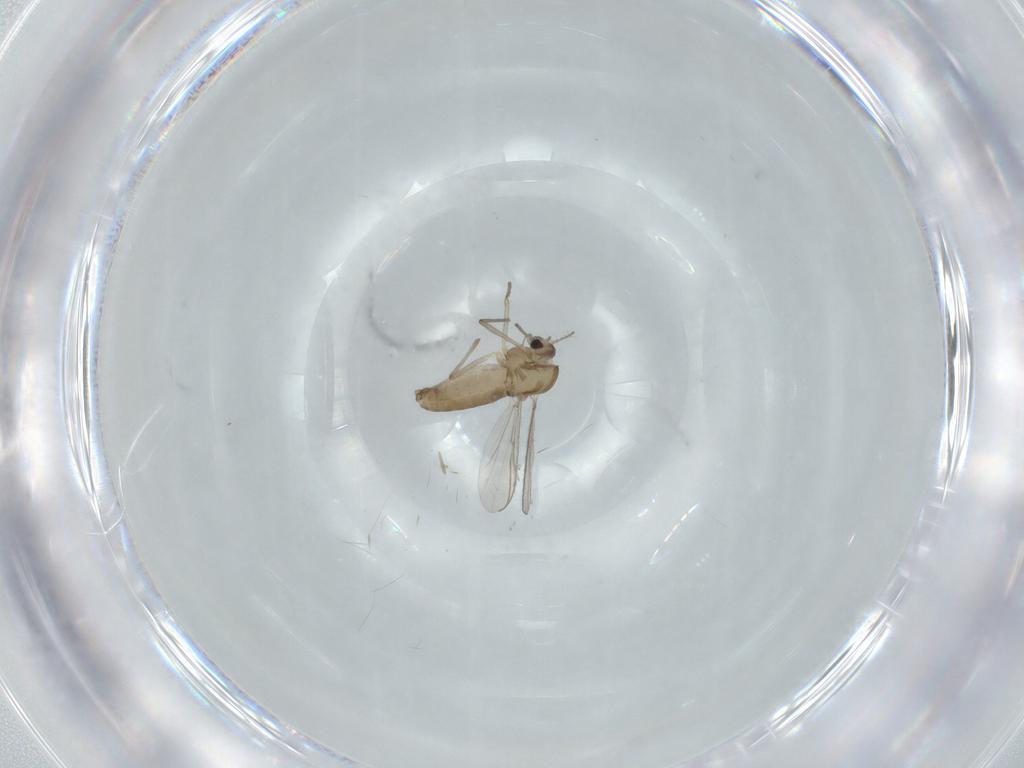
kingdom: Animalia
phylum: Arthropoda
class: Insecta
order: Diptera
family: Chironomidae
